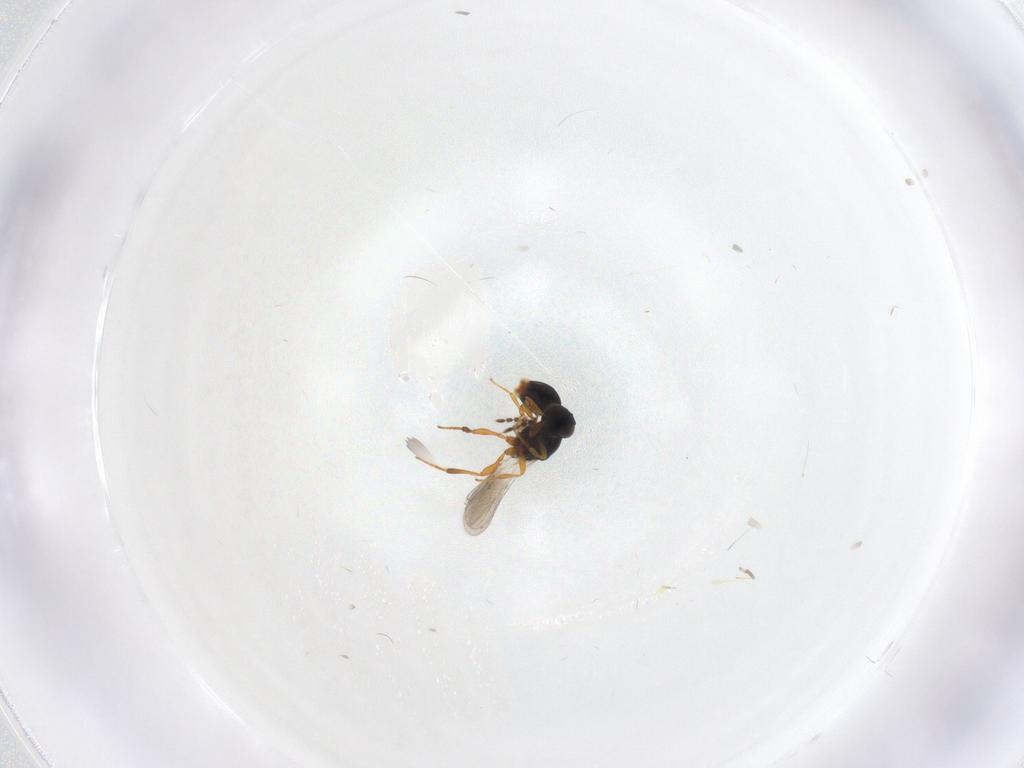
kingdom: Animalia
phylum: Arthropoda
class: Insecta
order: Hymenoptera
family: Platygastridae
